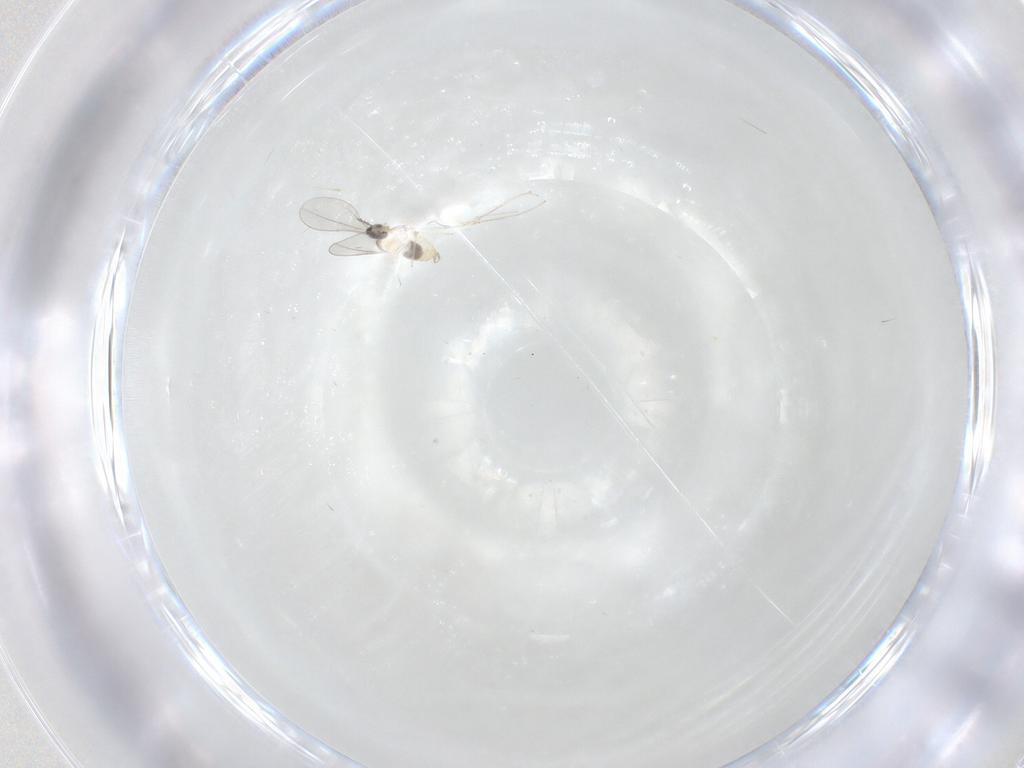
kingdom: Animalia
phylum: Arthropoda
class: Insecta
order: Diptera
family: Cecidomyiidae
